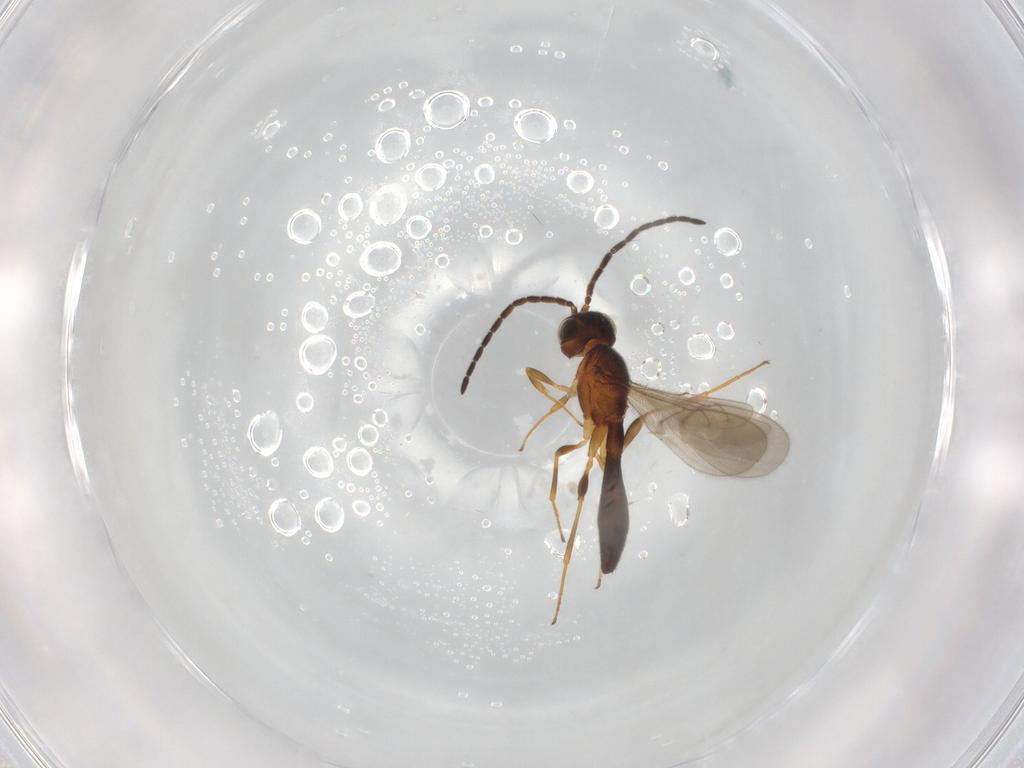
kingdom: Animalia
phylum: Arthropoda
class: Insecta
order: Hymenoptera
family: Scelionidae
